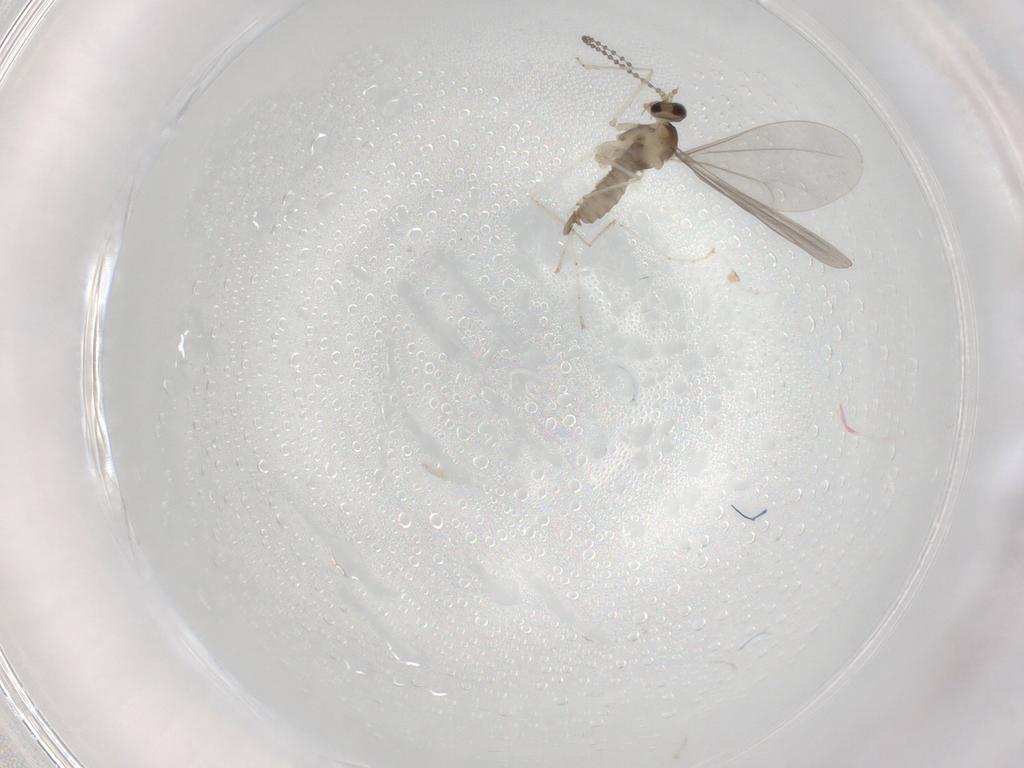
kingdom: Animalia
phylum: Arthropoda
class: Insecta
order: Diptera
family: Cecidomyiidae
